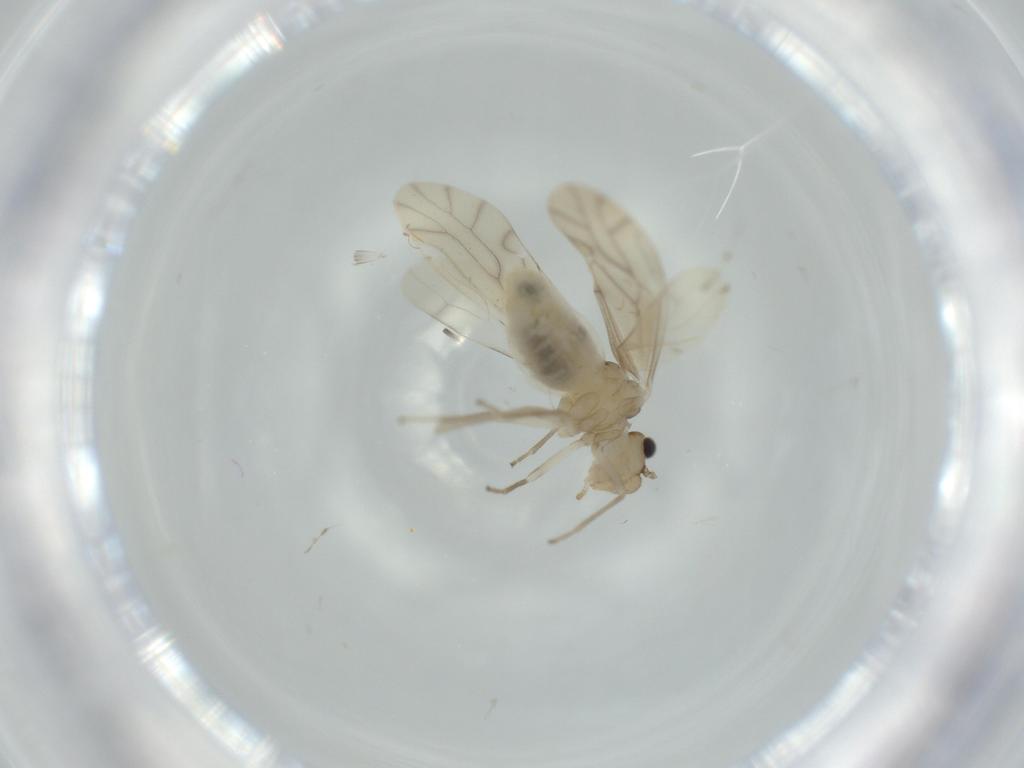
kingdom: Animalia
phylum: Arthropoda
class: Insecta
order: Psocodea
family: Caeciliusidae
